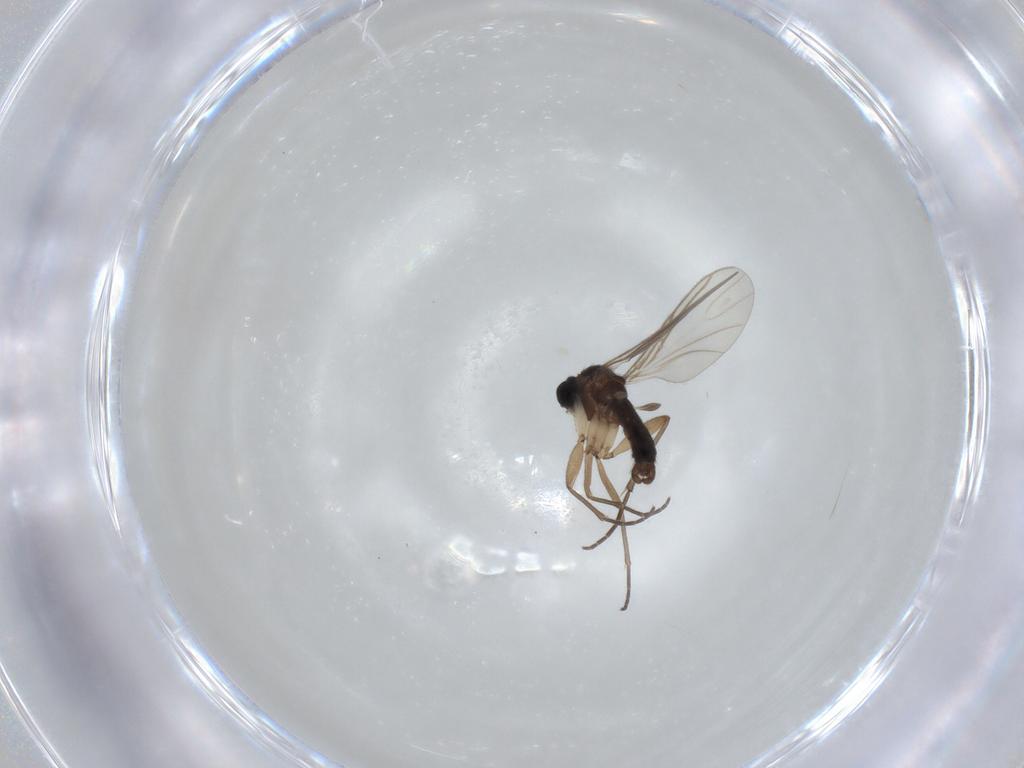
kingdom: Animalia
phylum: Arthropoda
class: Insecta
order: Diptera
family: Sciaridae
